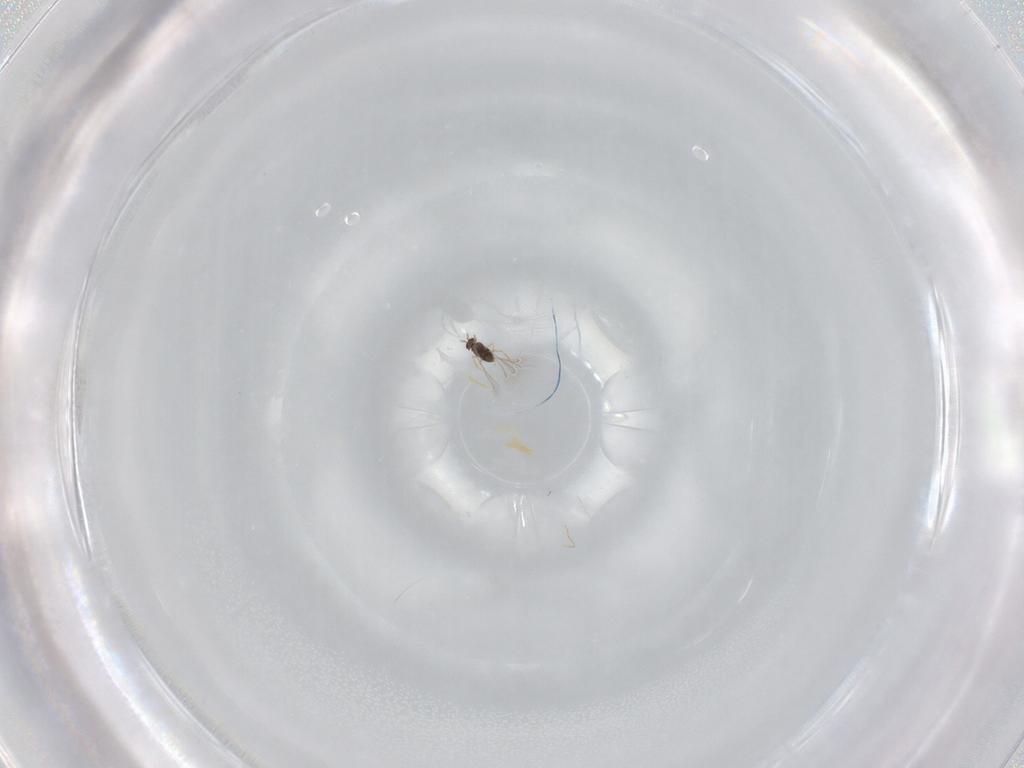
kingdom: Animalia
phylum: Arthropoda
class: Insecta
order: Hymenoptera
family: Mymaridae
